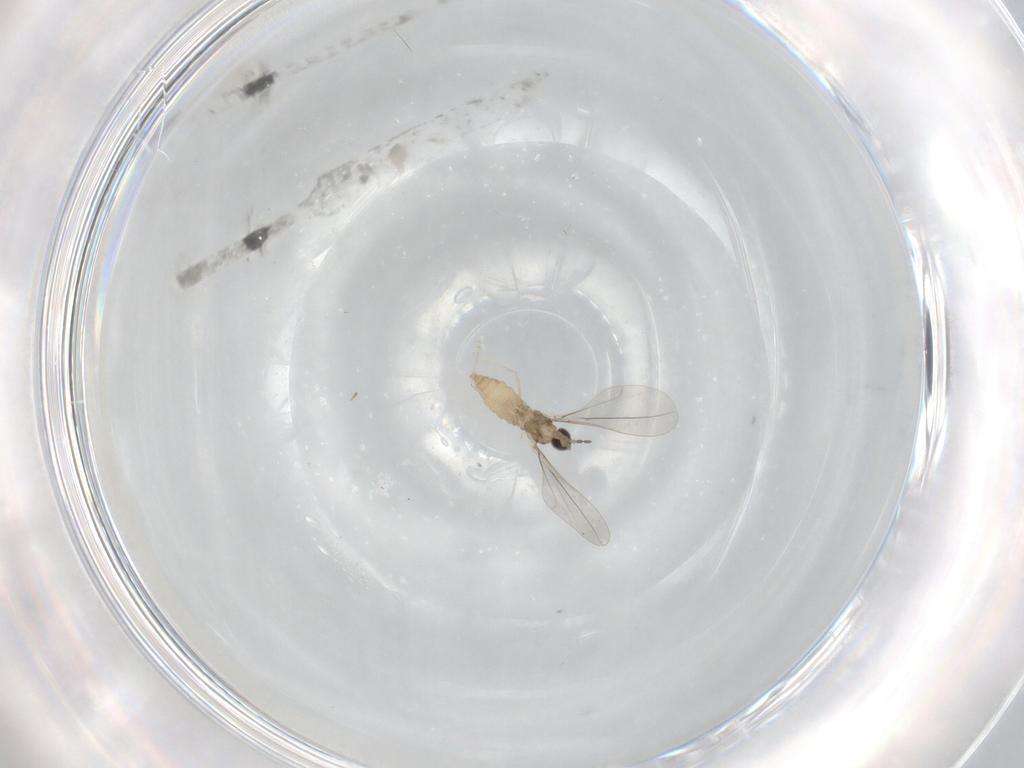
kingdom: Animalia
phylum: Arthropoda
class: Insecta
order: Diptera
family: Cecidomyiidae
